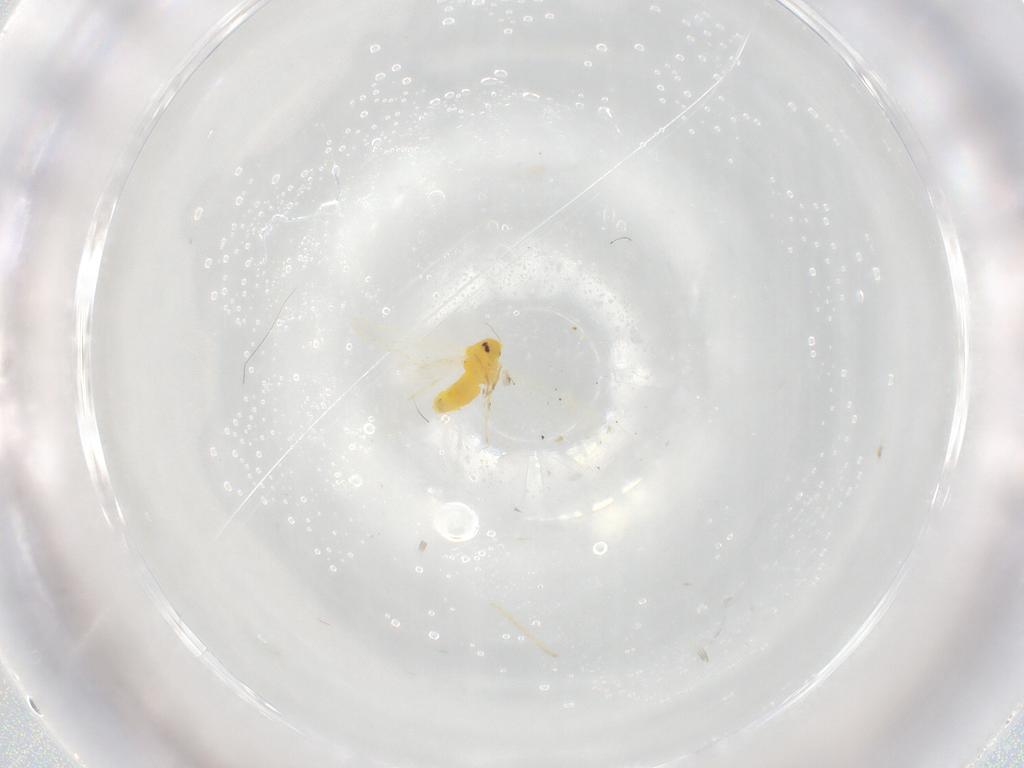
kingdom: Animalia
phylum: Arthropoda
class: Insecta
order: Hemiptera
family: Aleyrodidae
